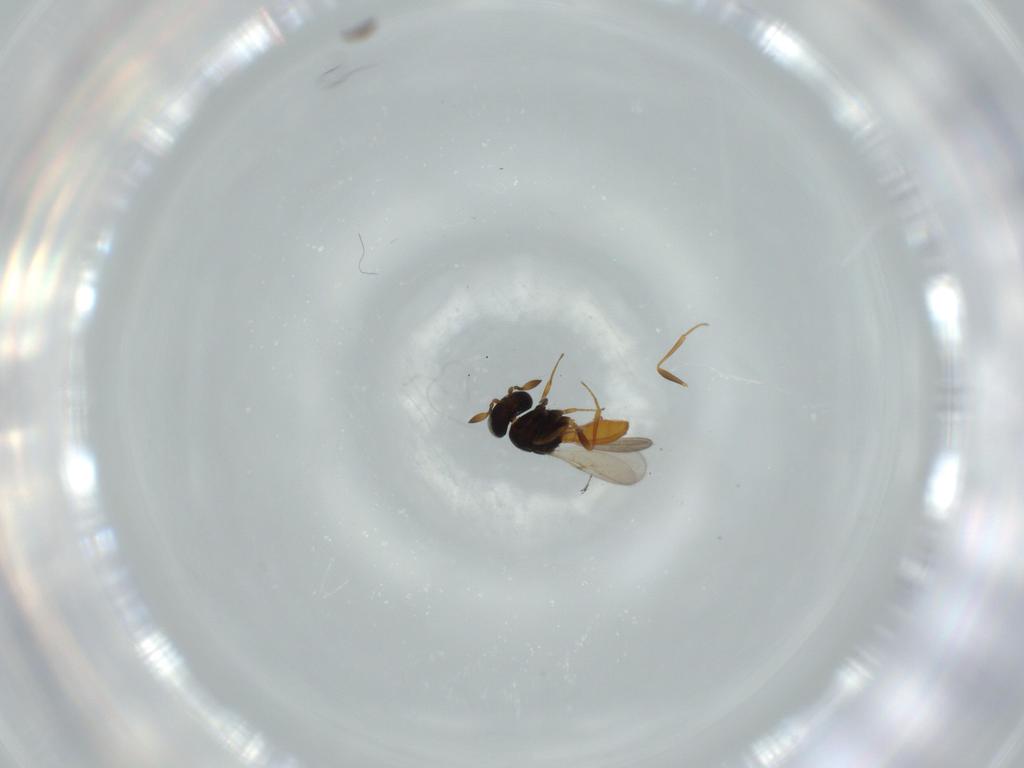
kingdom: Animalia
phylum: Arthropoda
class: Insecta
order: Hymenoptera
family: Scelionidae
